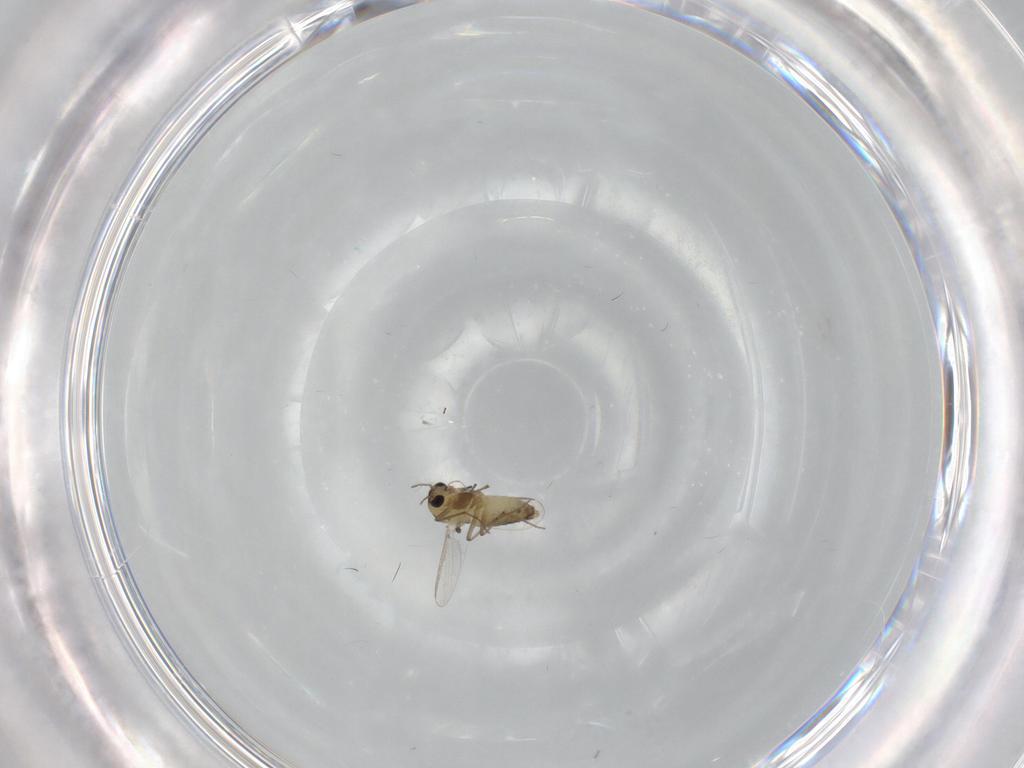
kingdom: Animalia
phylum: Arthropoda
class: Insecta
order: Diptera
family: Chironomidae
